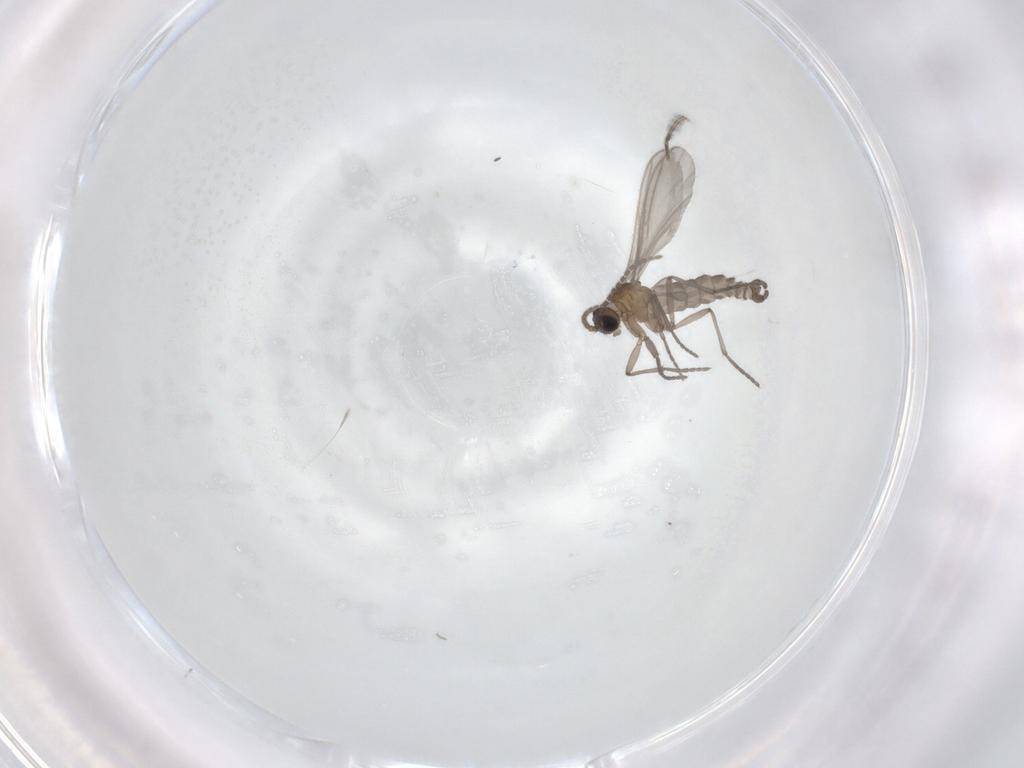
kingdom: Animalia
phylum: Arthropoda
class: Insecta
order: Diptera
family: Sciaridae
